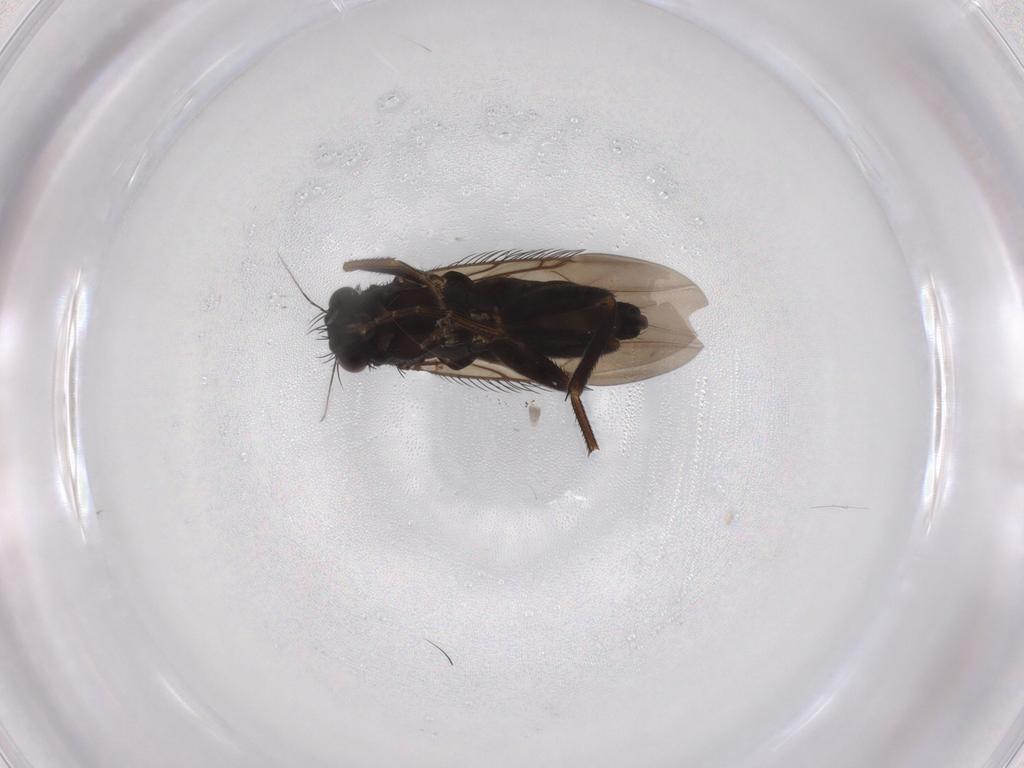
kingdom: Animalia
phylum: Arthropoda
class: Insecta
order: Diptera
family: Phoridae
